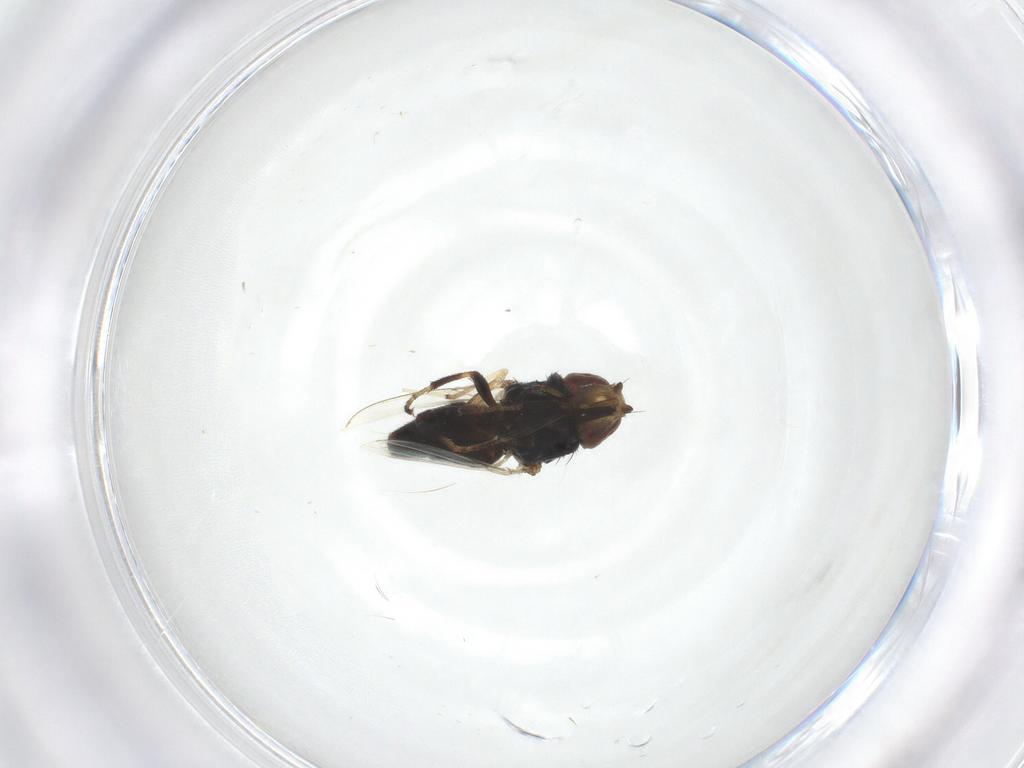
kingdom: Animalia
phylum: Arthropoda
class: Insecta
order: Diptera
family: Milichiidae
